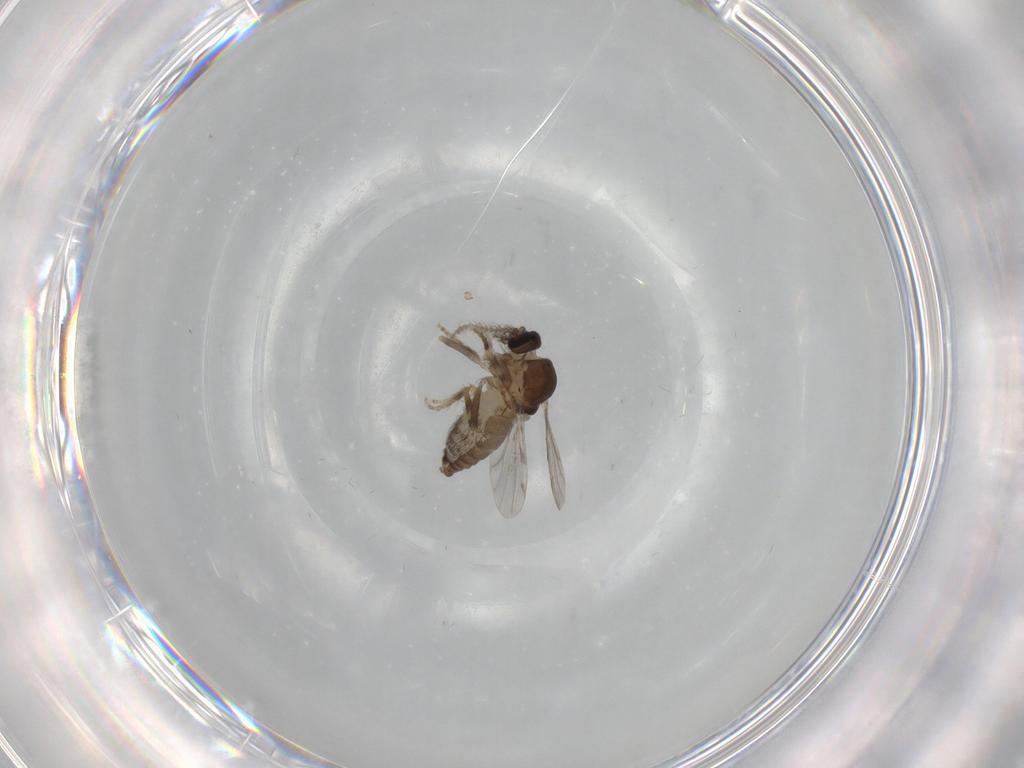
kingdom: Animalia
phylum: Arthropoda
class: Insecta
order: Diptera
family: Ceratopogonidae
